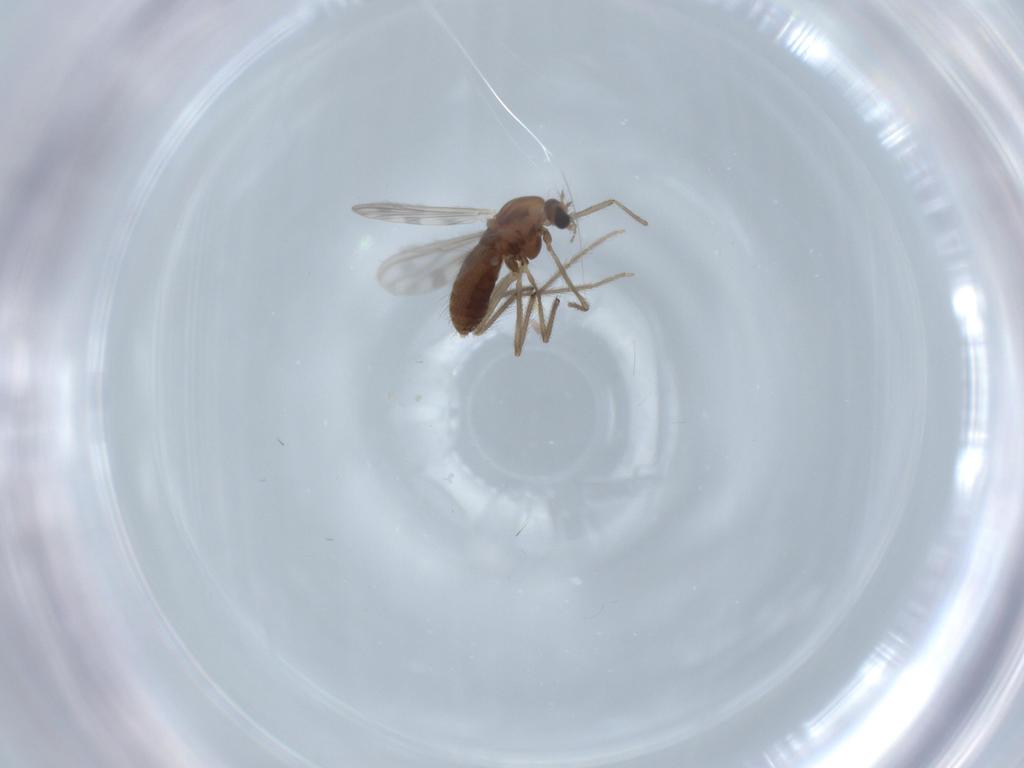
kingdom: Animalia
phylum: Arthropoda
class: Insecta
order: Diptera
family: Chironomidae
